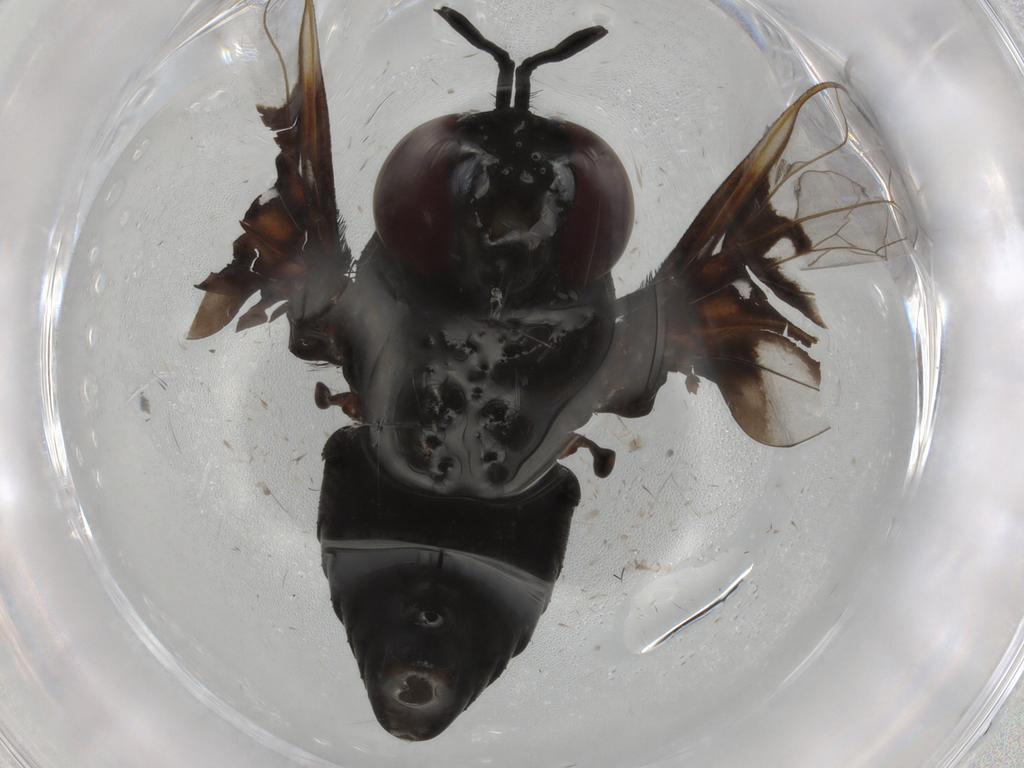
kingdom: Animalia
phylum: Arthropoda
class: Insecta
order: Diptera
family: Bombyliidae
